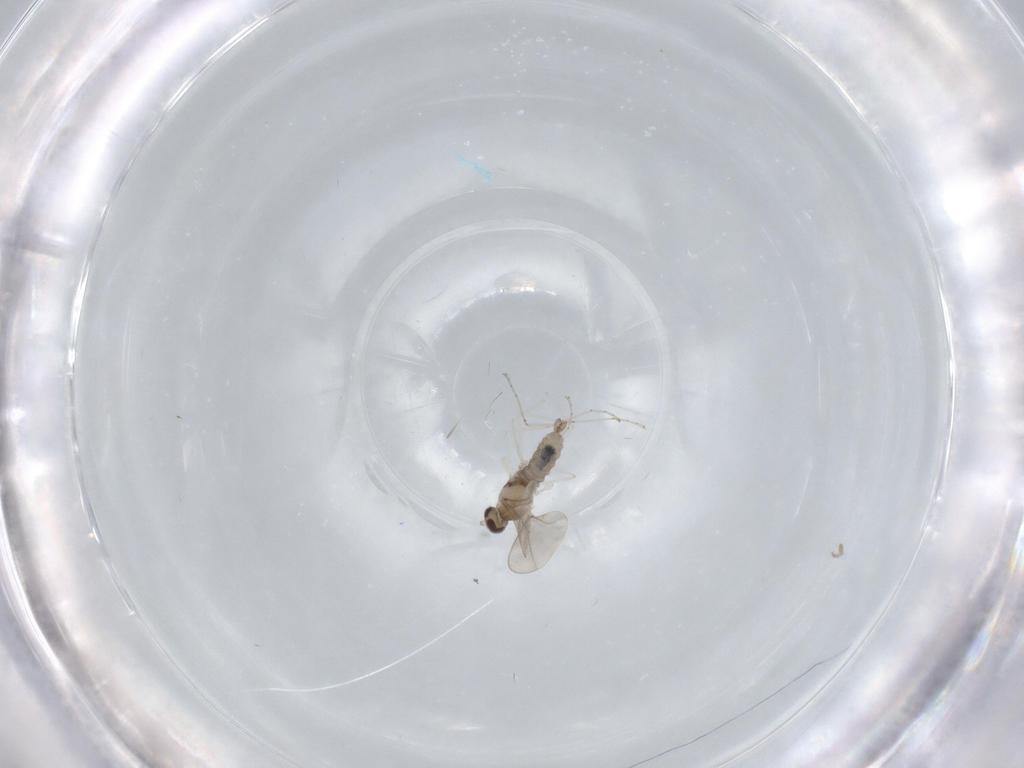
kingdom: Animalia
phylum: Arthropoda
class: Insecta
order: Diptera
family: Cecidomyiidae
